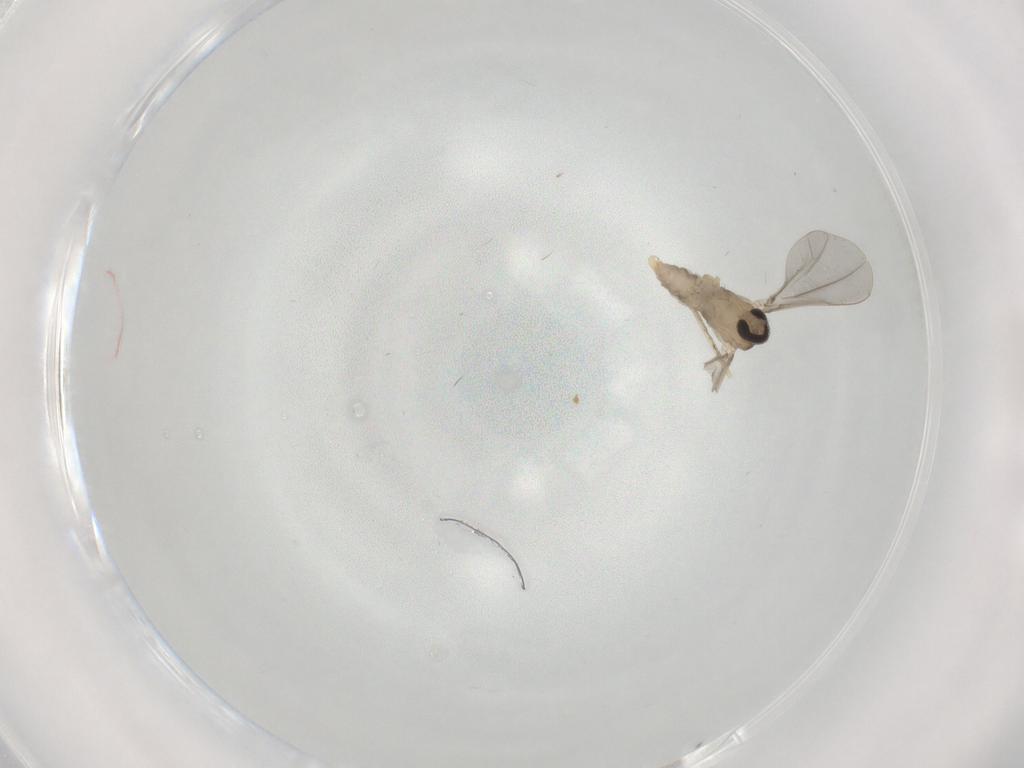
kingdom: Animalia
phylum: Arthropoda
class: Insecta
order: Diptera
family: Cecidomyiidae
